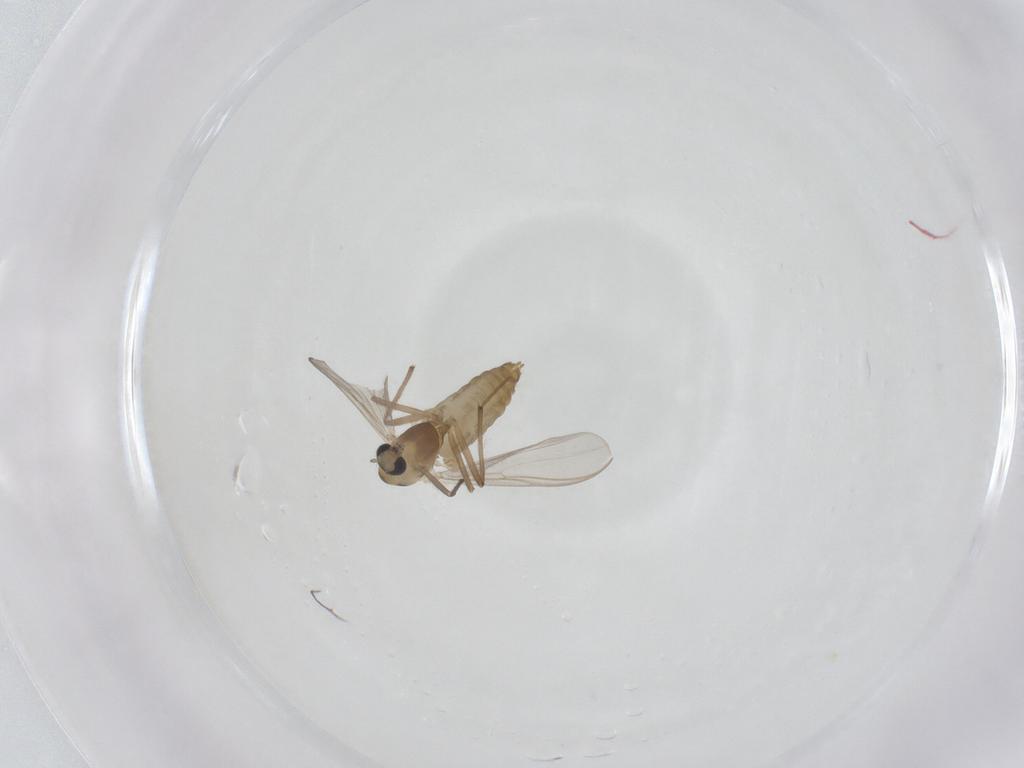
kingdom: Animalia
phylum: Arthropoda
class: Insecta
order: Diptera
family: Chironomidae
